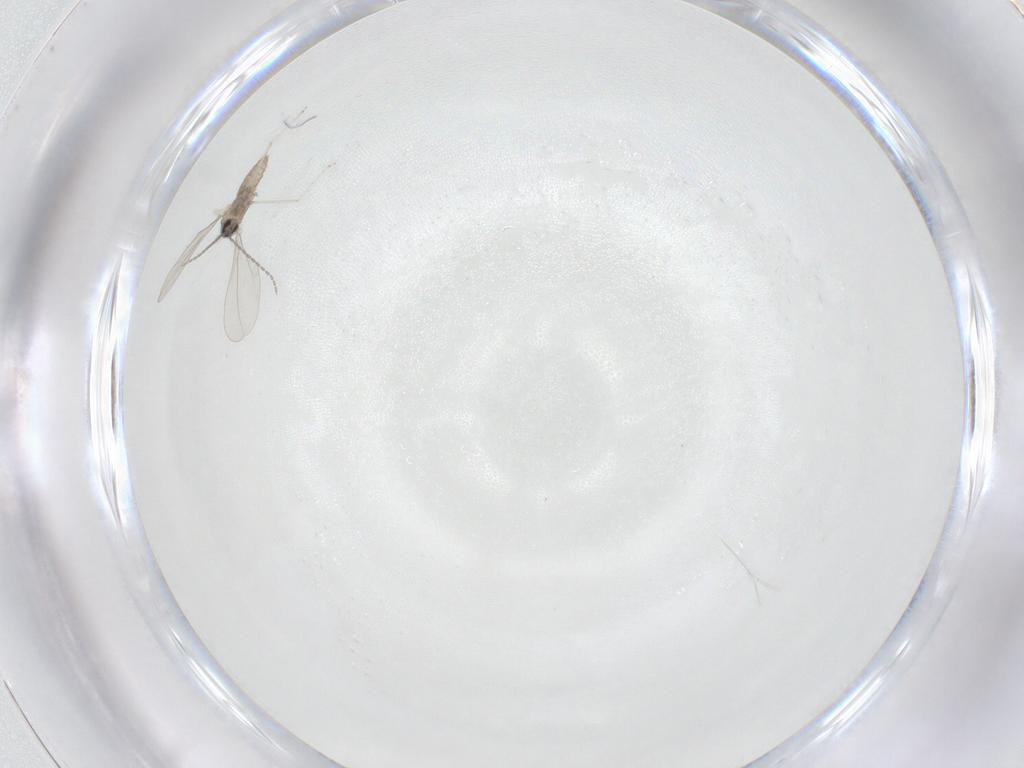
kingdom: Animalia
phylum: Arthropoda
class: Insecta
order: Diptera
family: Cecidomyiidae
